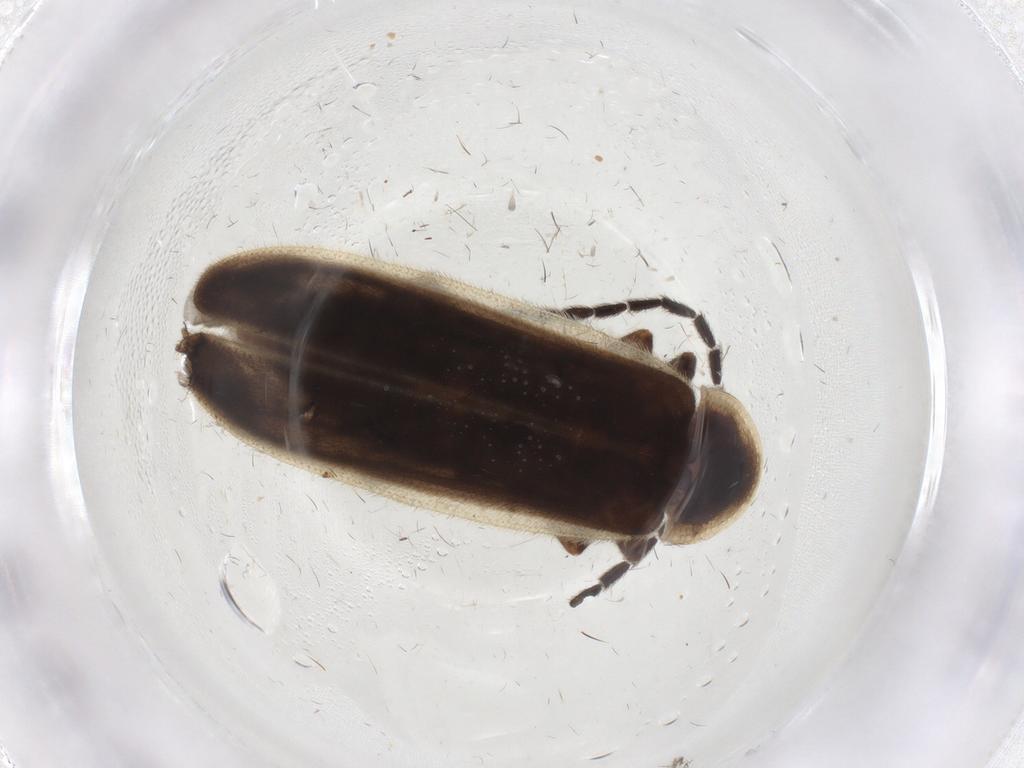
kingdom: Animalia
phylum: Arthropoda
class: Insecta
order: Coleoptera
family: Lampyridae
